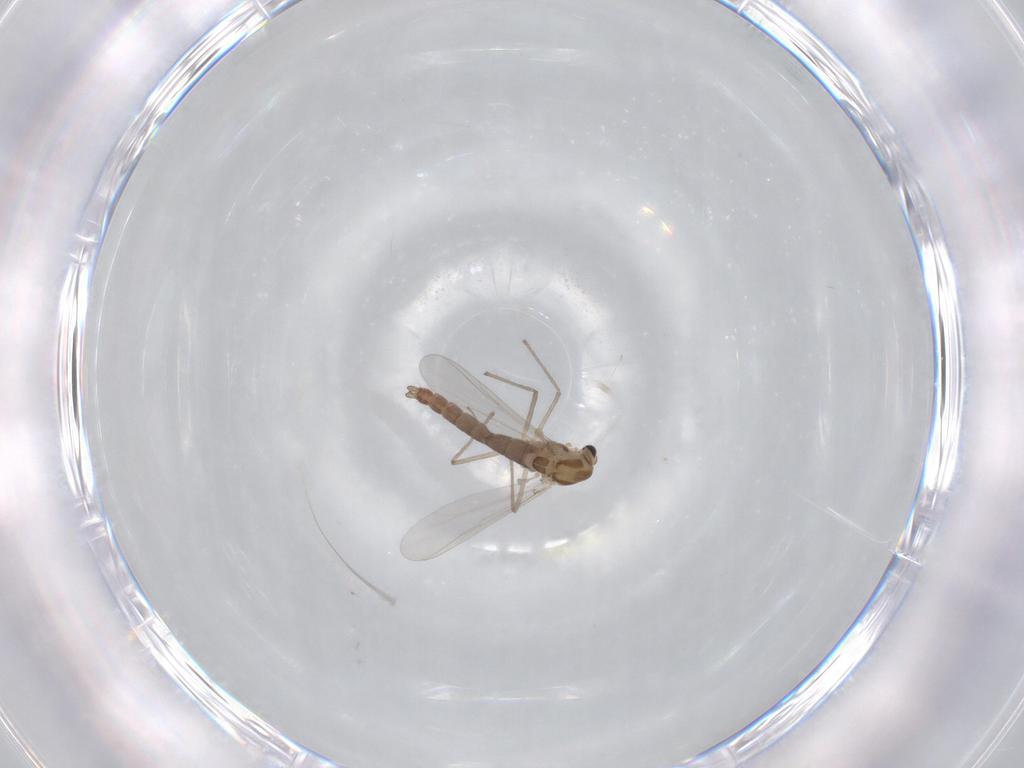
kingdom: Animalia
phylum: Arthropoda
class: Insecta
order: Diptera
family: Chironomidae
